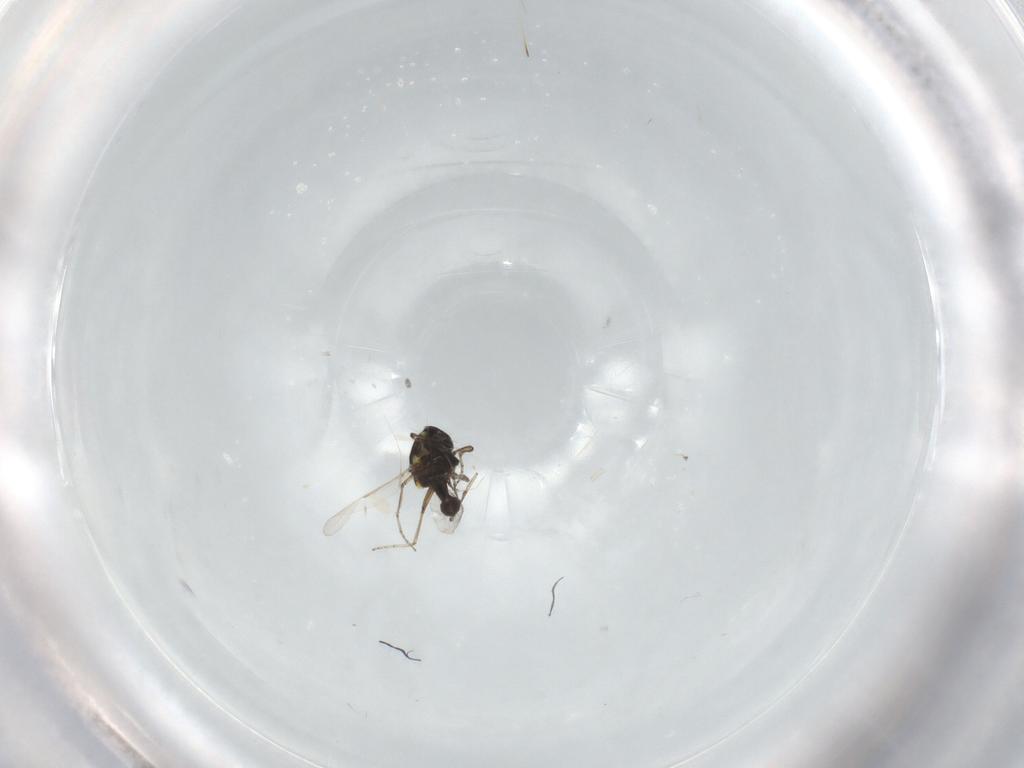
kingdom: Animalia
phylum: Arthropoda
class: Insecta
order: Diptera
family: Ceratopogonidae
